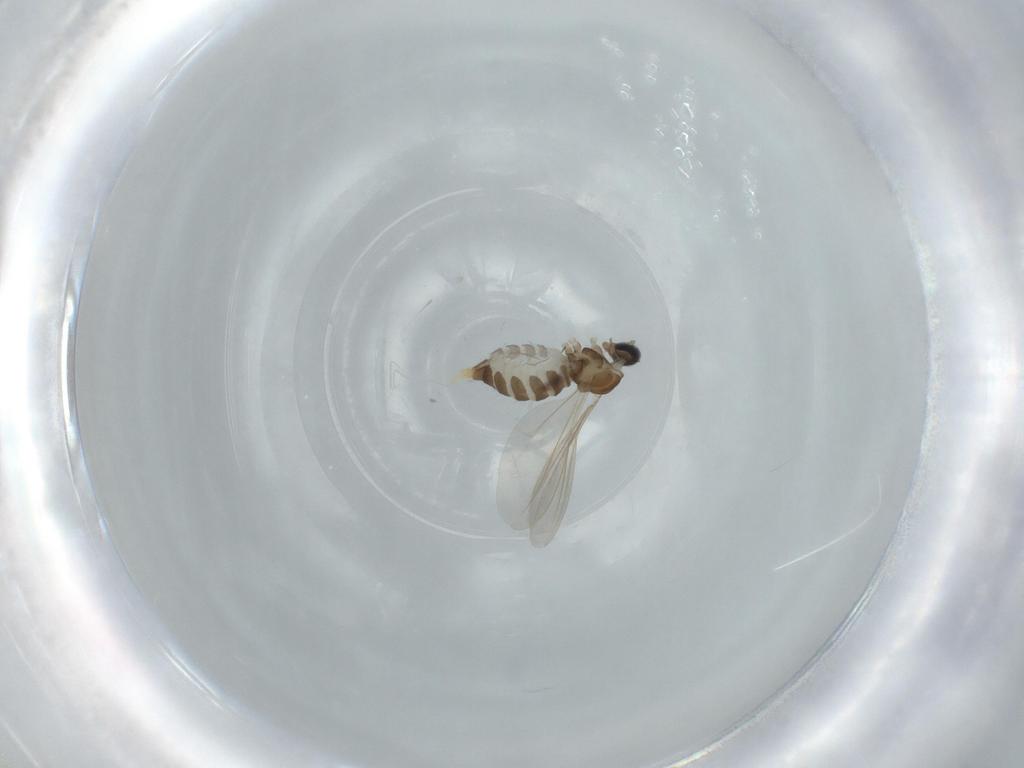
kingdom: Animalia
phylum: Arthropoda
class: Insecta
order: Diptera
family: Cecidomyiidae
